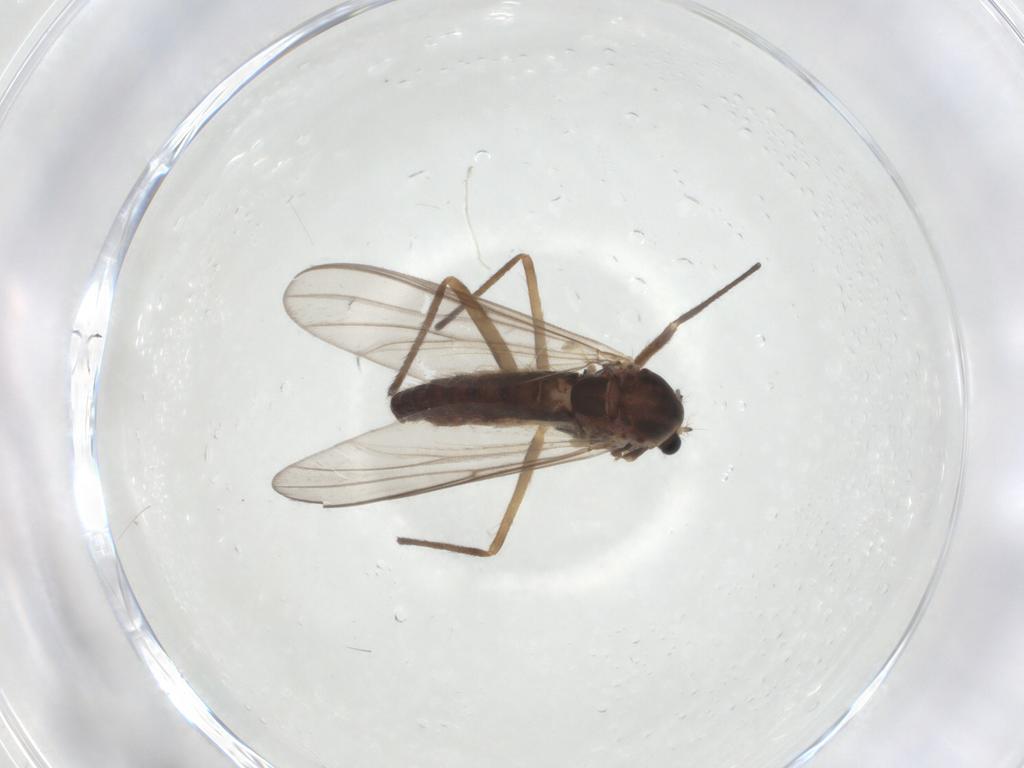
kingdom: Animalia
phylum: Arthropoda
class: Insecta
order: Diptera
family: Chironomidae
